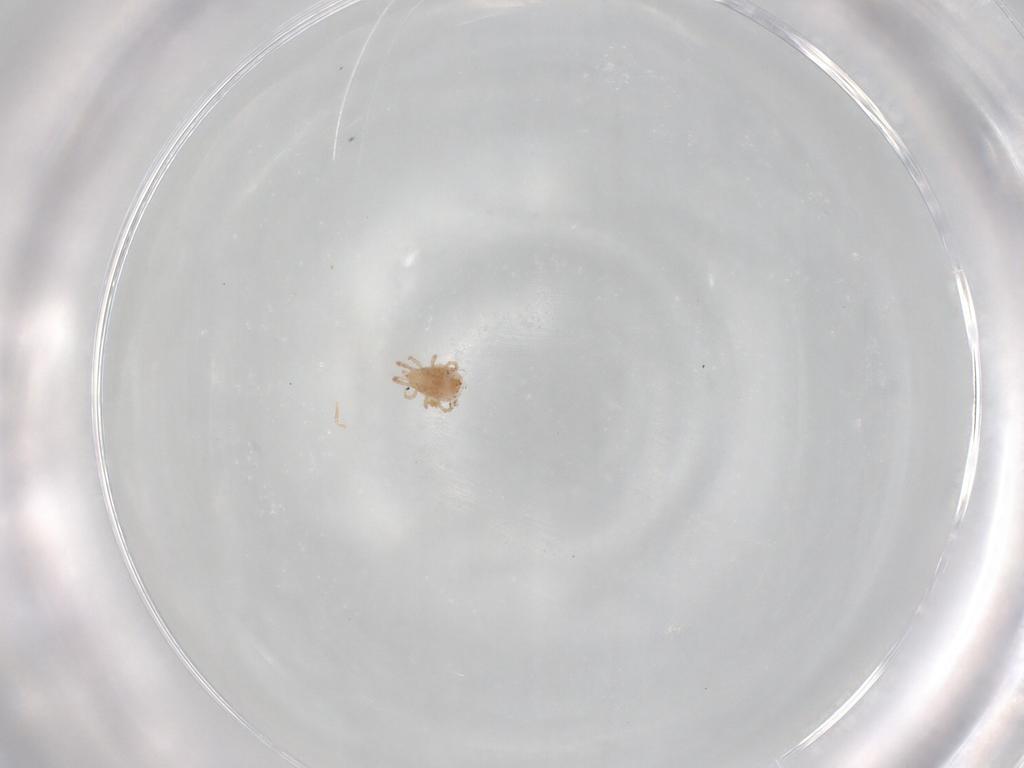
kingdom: Animalia
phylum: Arthropoda
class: Arachnida
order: Mesostigmata
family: Phytoseiidae
